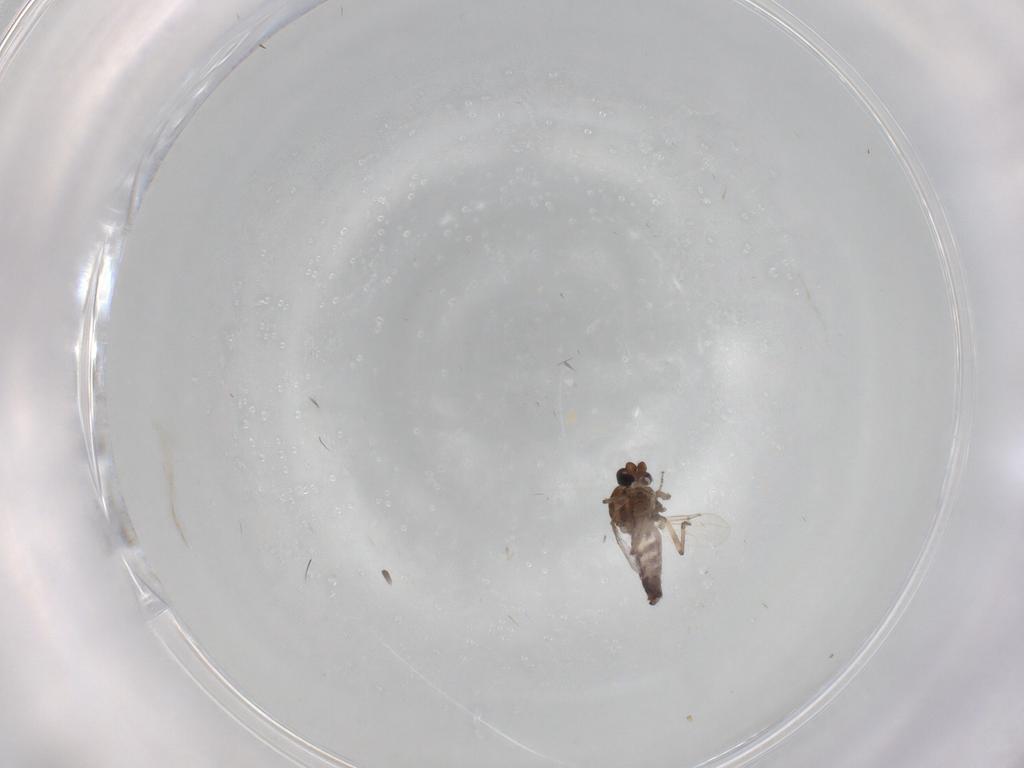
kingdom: Animalia
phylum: Arthropoda
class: Insecta
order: Diptera
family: Ceratopogonidae
